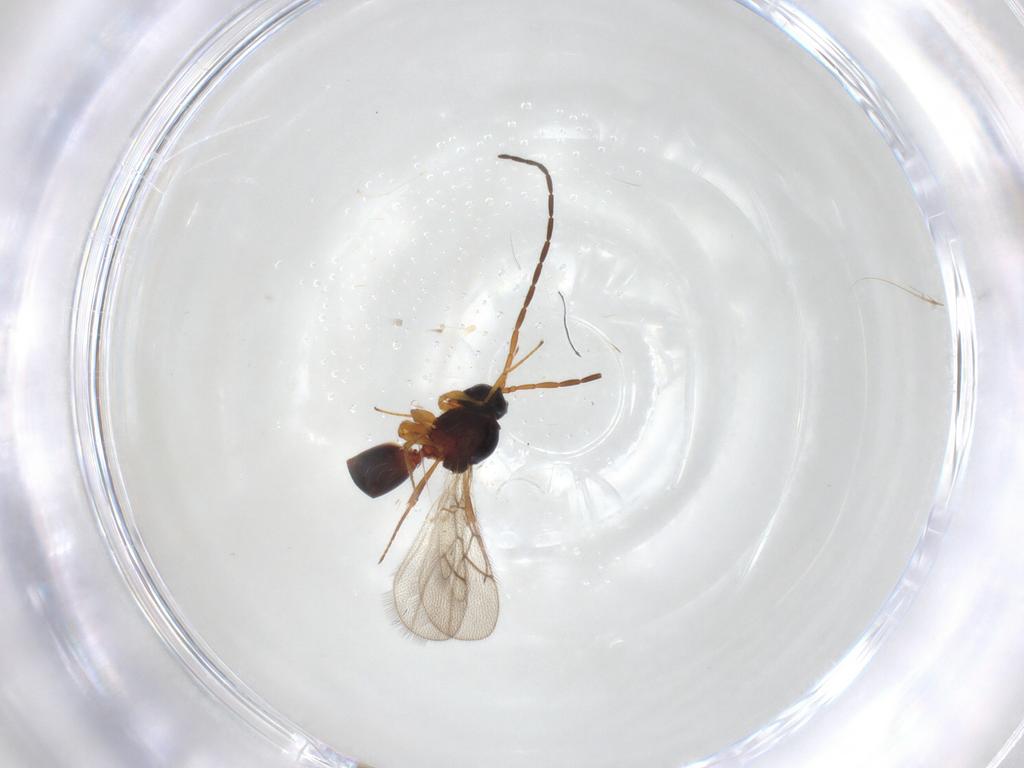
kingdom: Animalia
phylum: Arthropoda
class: Insecta
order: Hymenoptera
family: Figitidae
